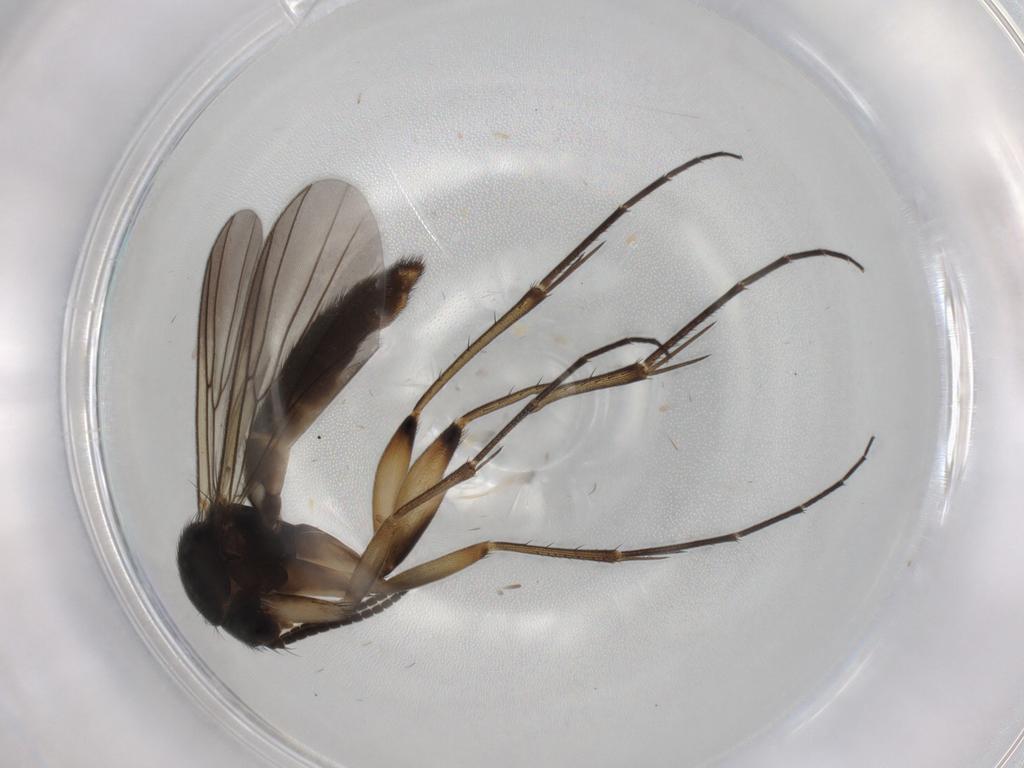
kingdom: Animalia
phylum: Arthropoda
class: Insecta
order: Diptera
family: Mycetophilidae
